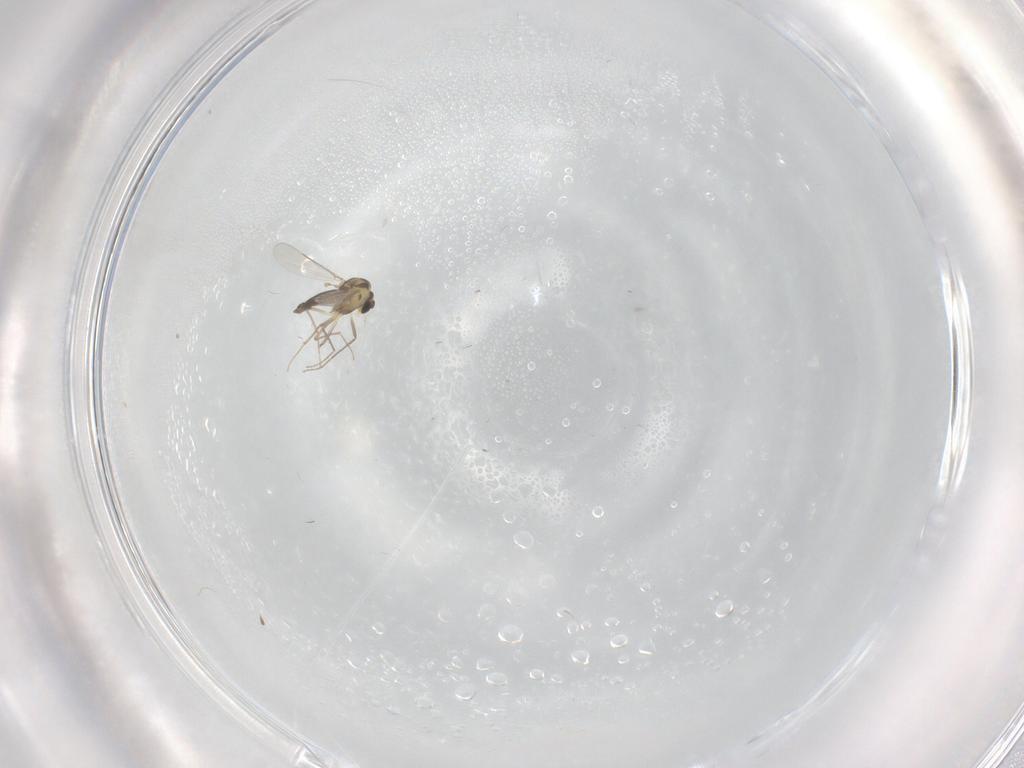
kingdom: Animalia
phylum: Arthropoda
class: Insecta
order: Diptera
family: Chironomidae
